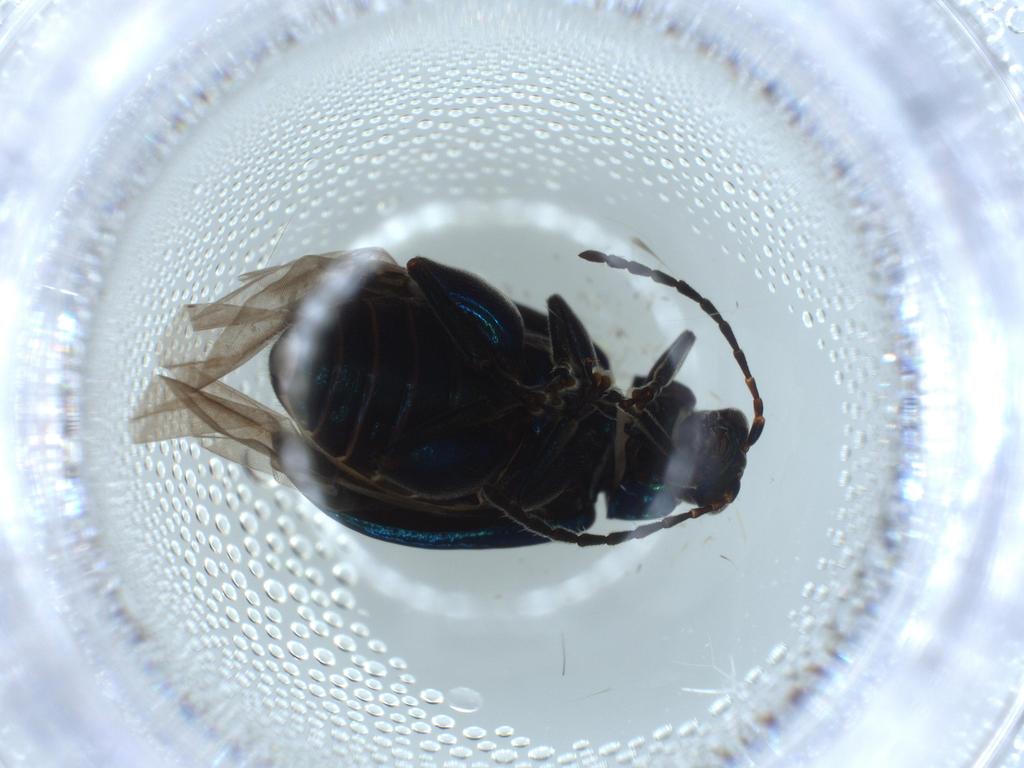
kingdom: Animalia
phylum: Arthropoda
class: Insecta
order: Coleoptera
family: Chrysomelidae
